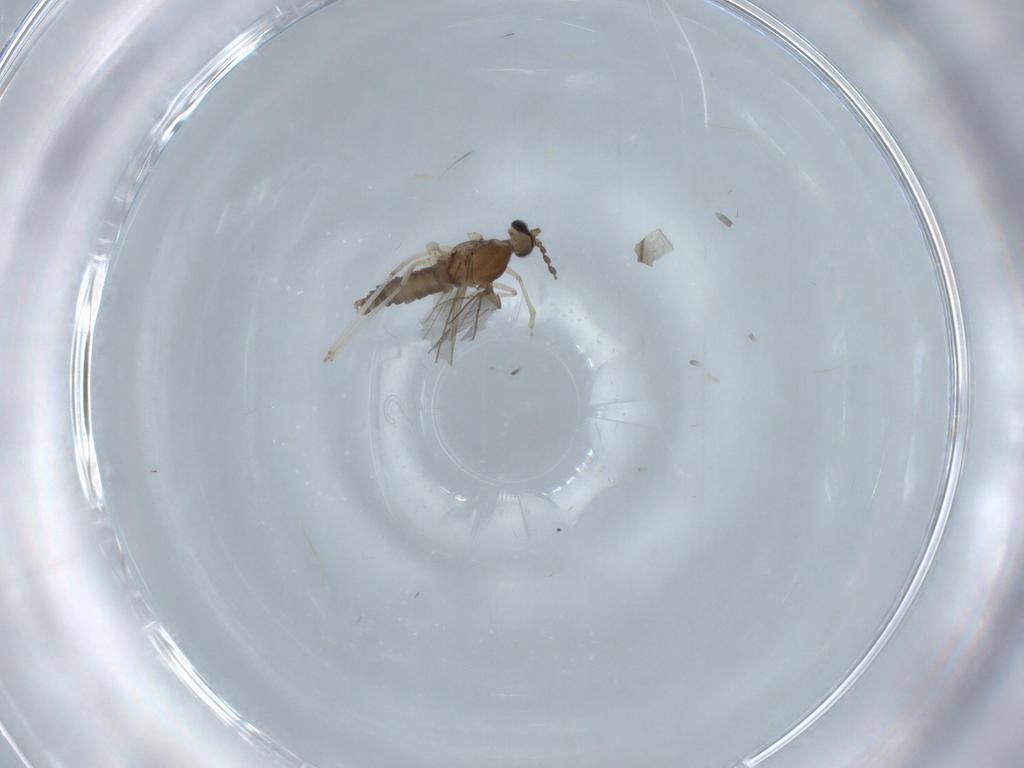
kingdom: Animalia
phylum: Arthropoda
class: Insecta
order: Diptera
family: Cecidomyiidae
